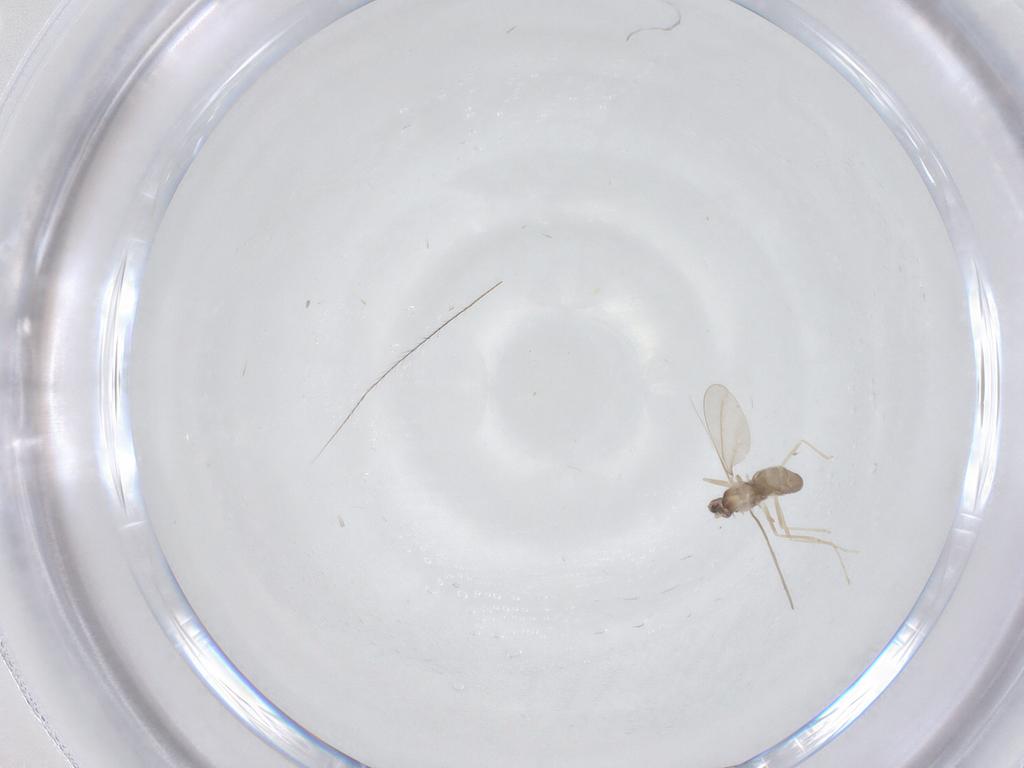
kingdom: Animalia
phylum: Arthropoda
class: Insecta
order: Diptera
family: Cecidomyiidae
